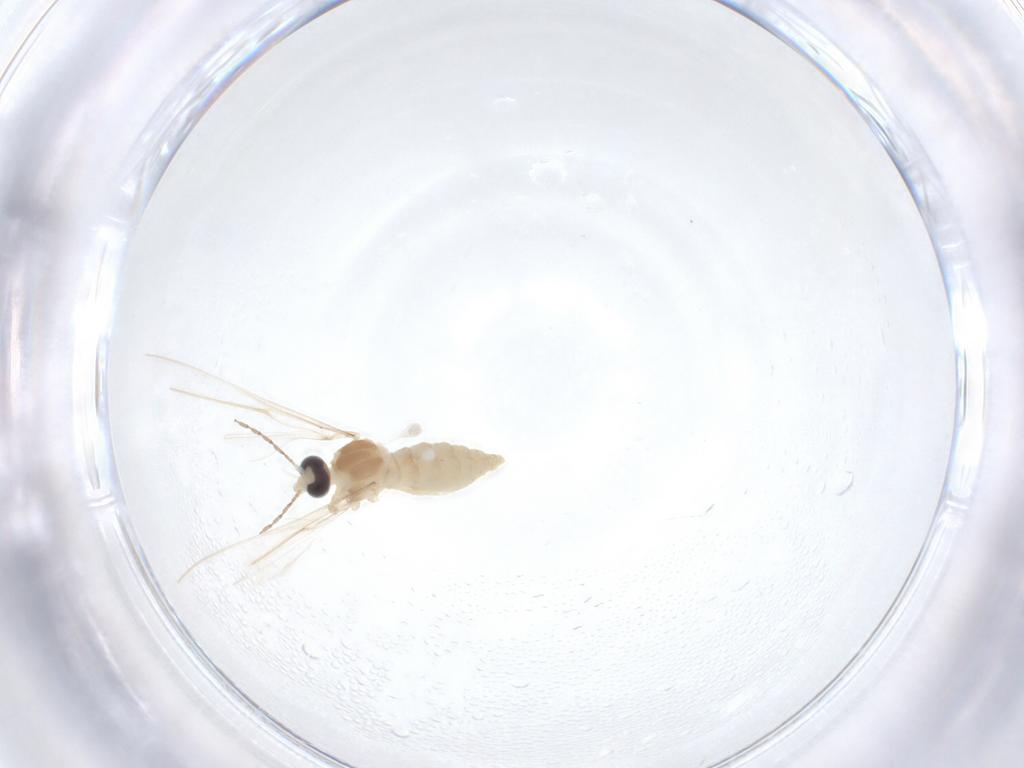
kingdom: Animalia
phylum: Arthropoda
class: Insecta
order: Diptera
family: Cecidomyiidae
